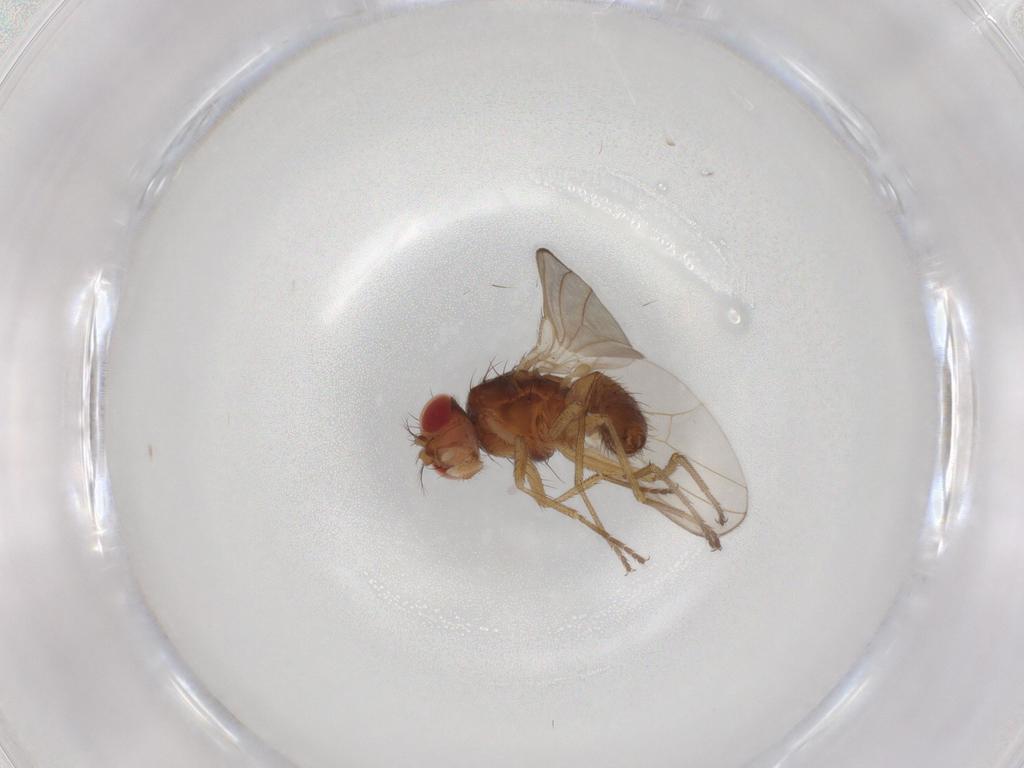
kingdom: Animalia
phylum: Arthropoda
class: Insecta
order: Diptera
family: Drosophilidae
